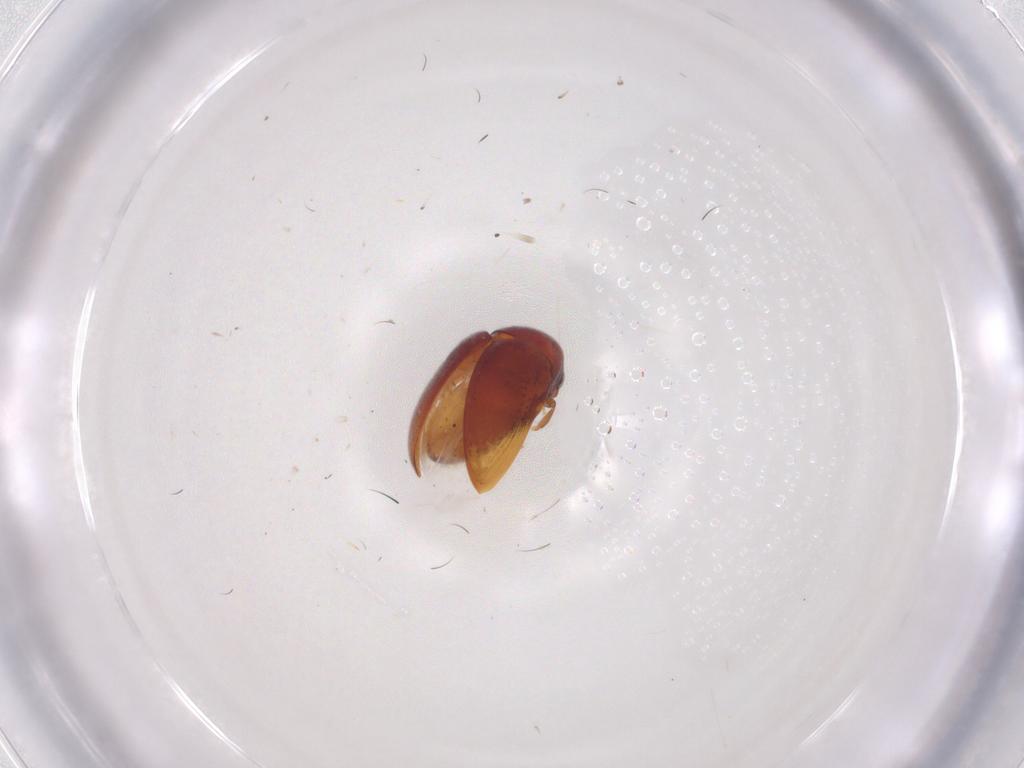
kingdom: Animalia
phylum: Arthropoda
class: Insecta
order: Coleoptera
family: Ptinidae
